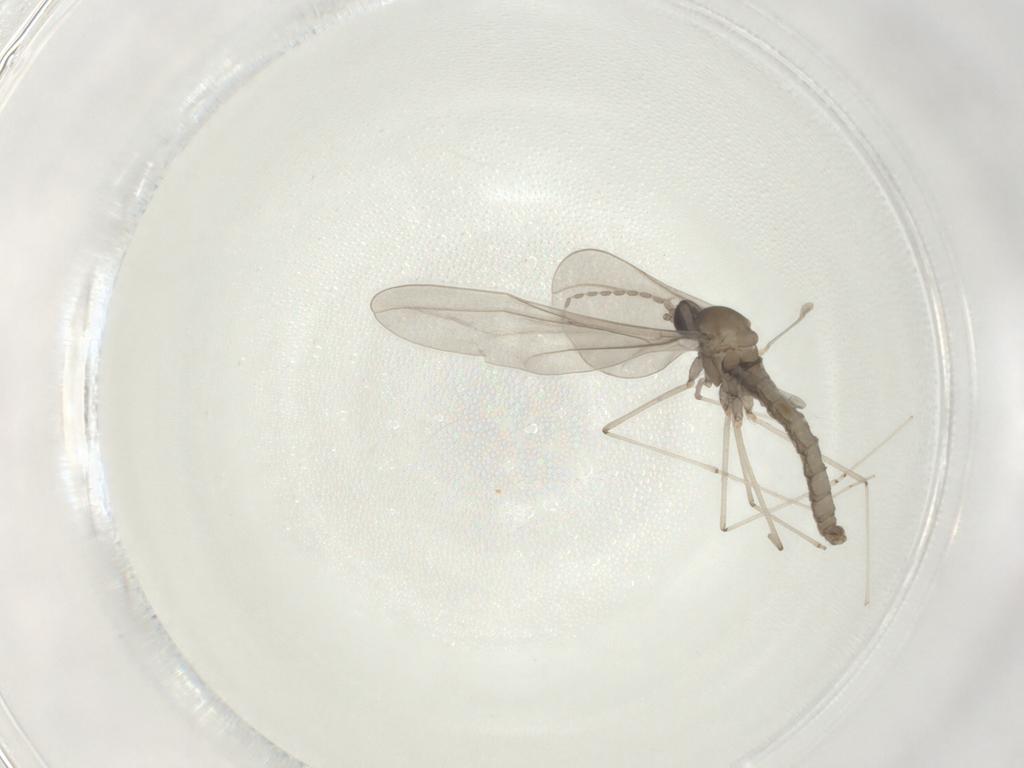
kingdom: Animalia
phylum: Arthropoda
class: Insecta
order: Diptera
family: Cecidomyiidae
